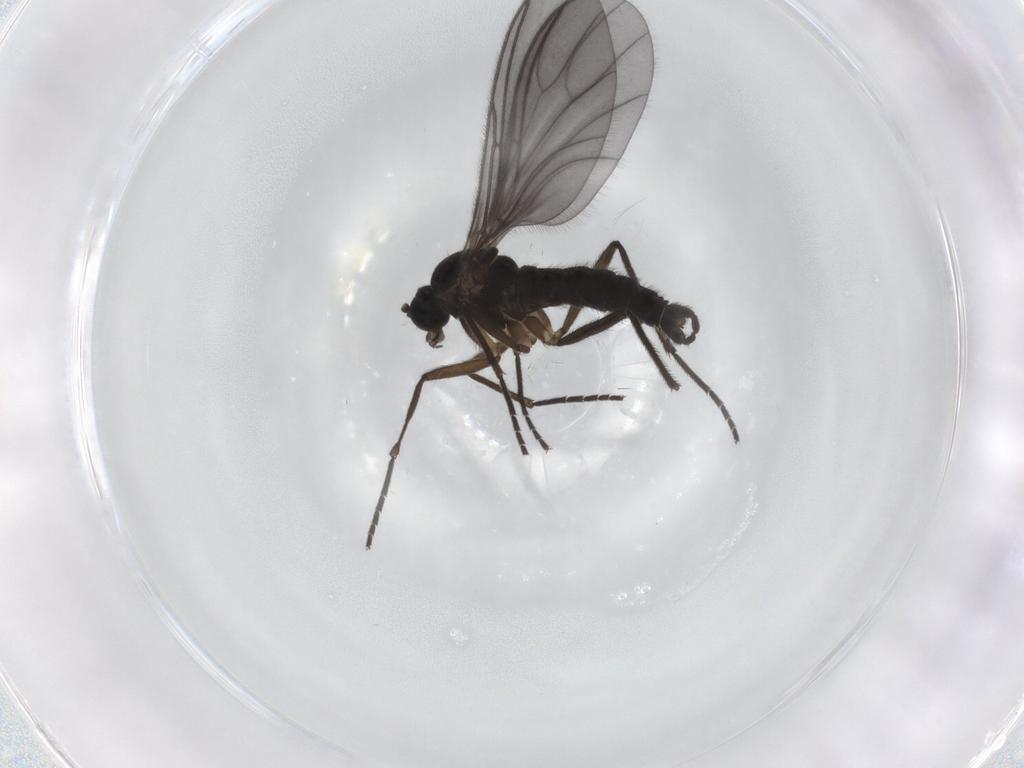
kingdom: Animalia
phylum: Arthropoda
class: Insecta
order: Diptera
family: Sciaridae
